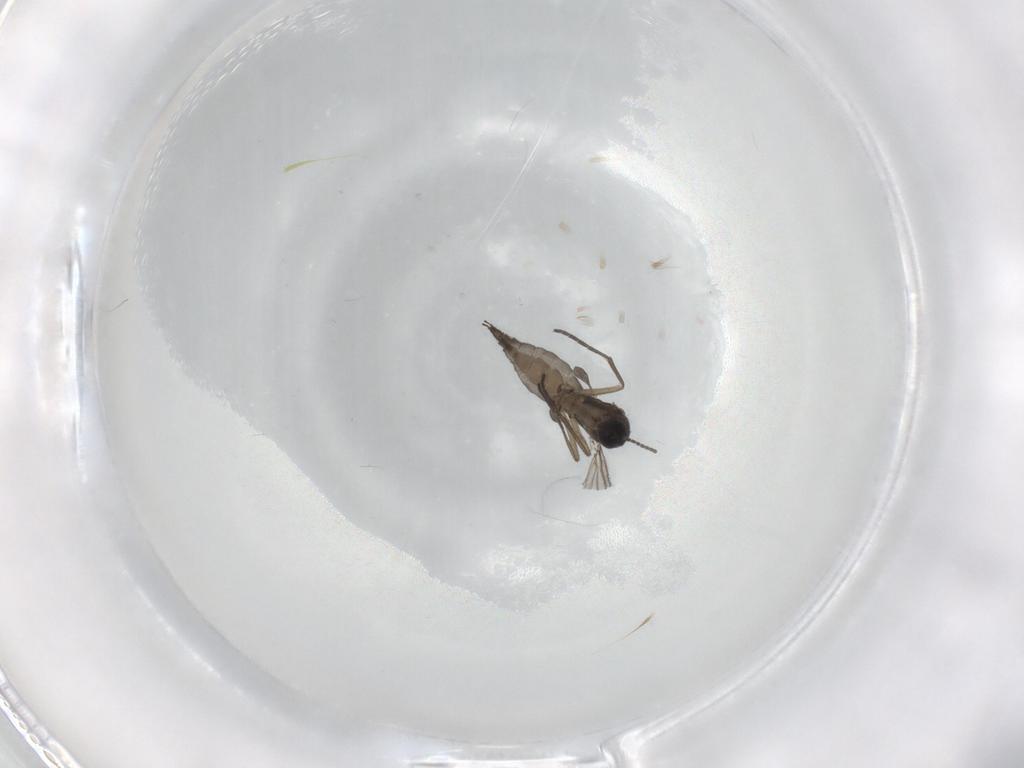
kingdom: Animalia
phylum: Arthropoda
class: Insecta
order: Diptera
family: Sciaridae
